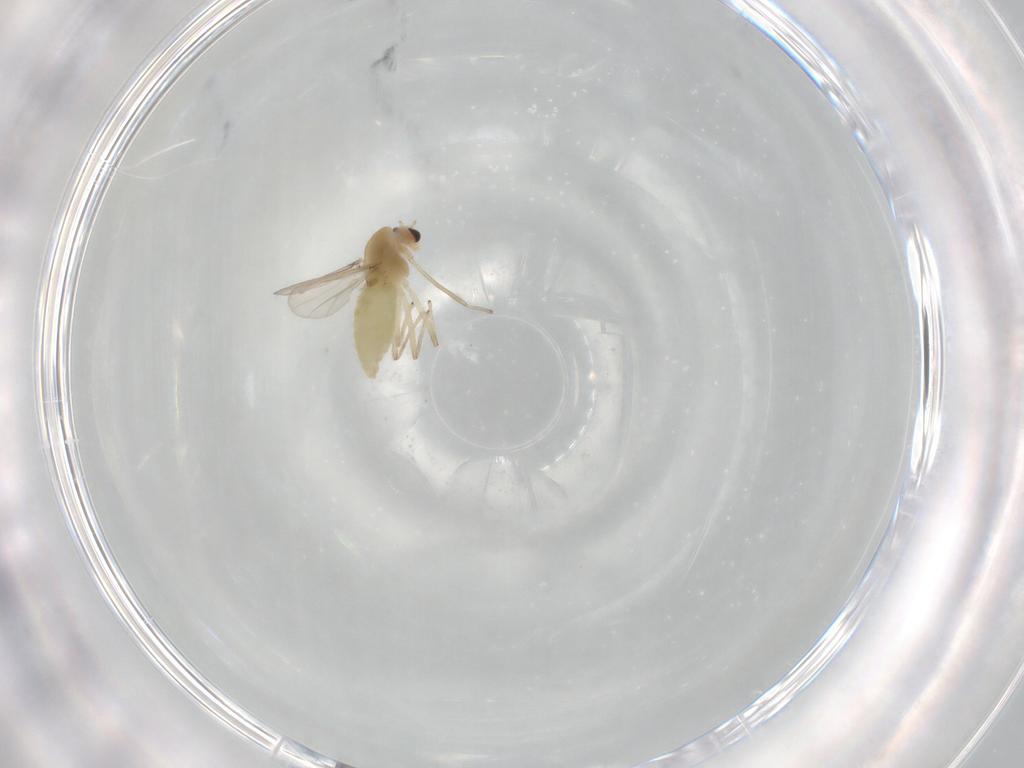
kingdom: Animalia
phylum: Arthropoda
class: Insecta
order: Diptera
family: Chironomidae
